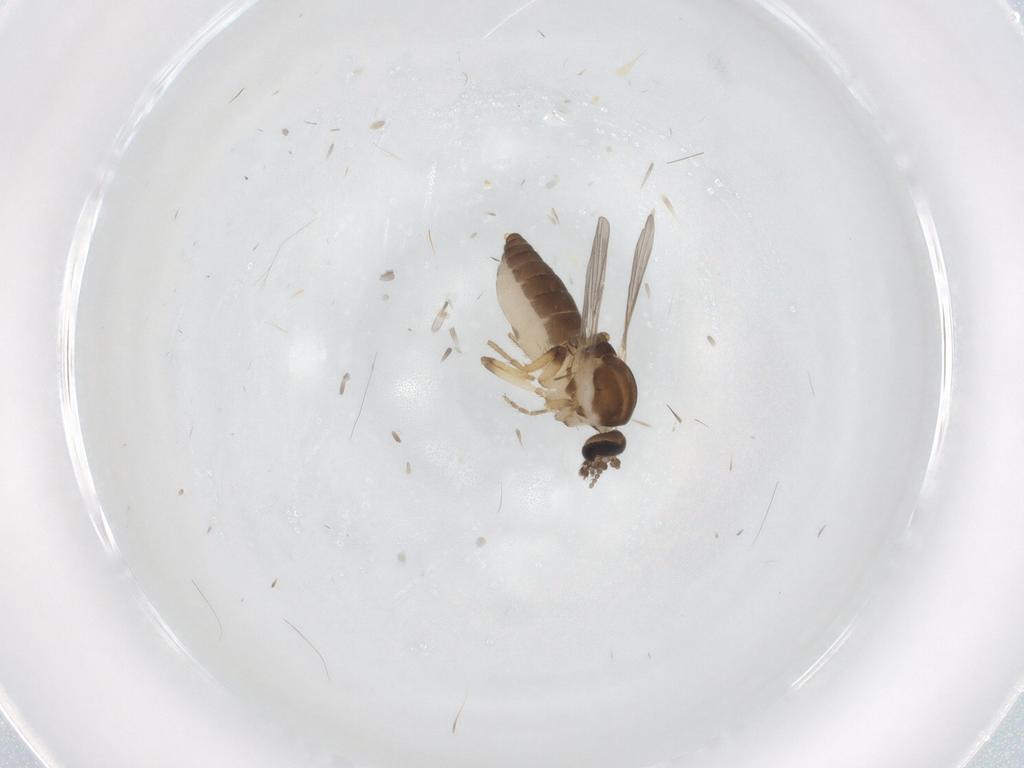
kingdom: Animalia
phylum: Arthropoda
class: Insecta
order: Diptera
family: Ceratopogonidae
